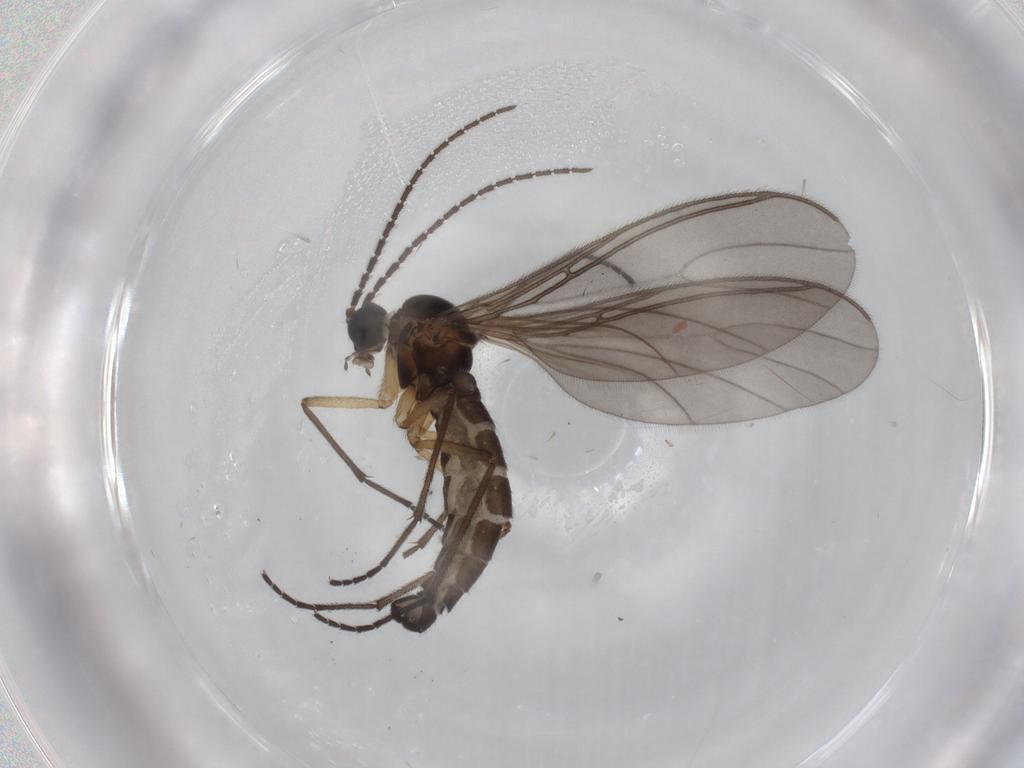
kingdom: Animalia
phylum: Arthropoda
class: Insecta
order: Diptera
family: Sciaridae
